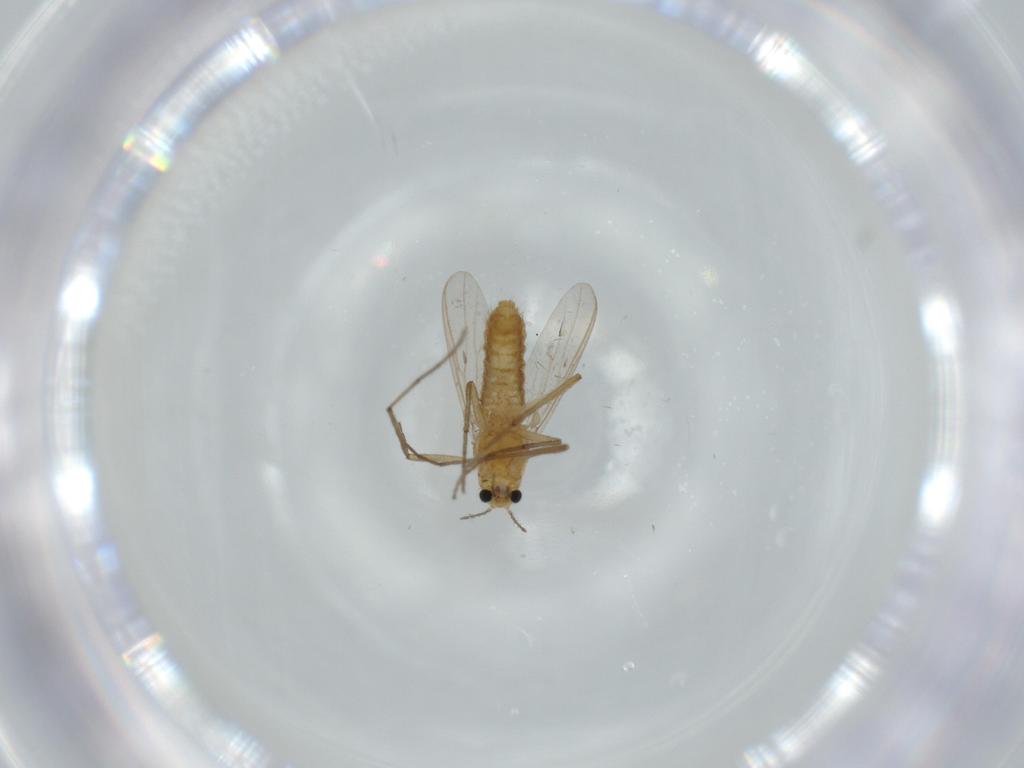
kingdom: Animalia
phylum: Arthropoda
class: Insecta
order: Diptera
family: Chironomidae
